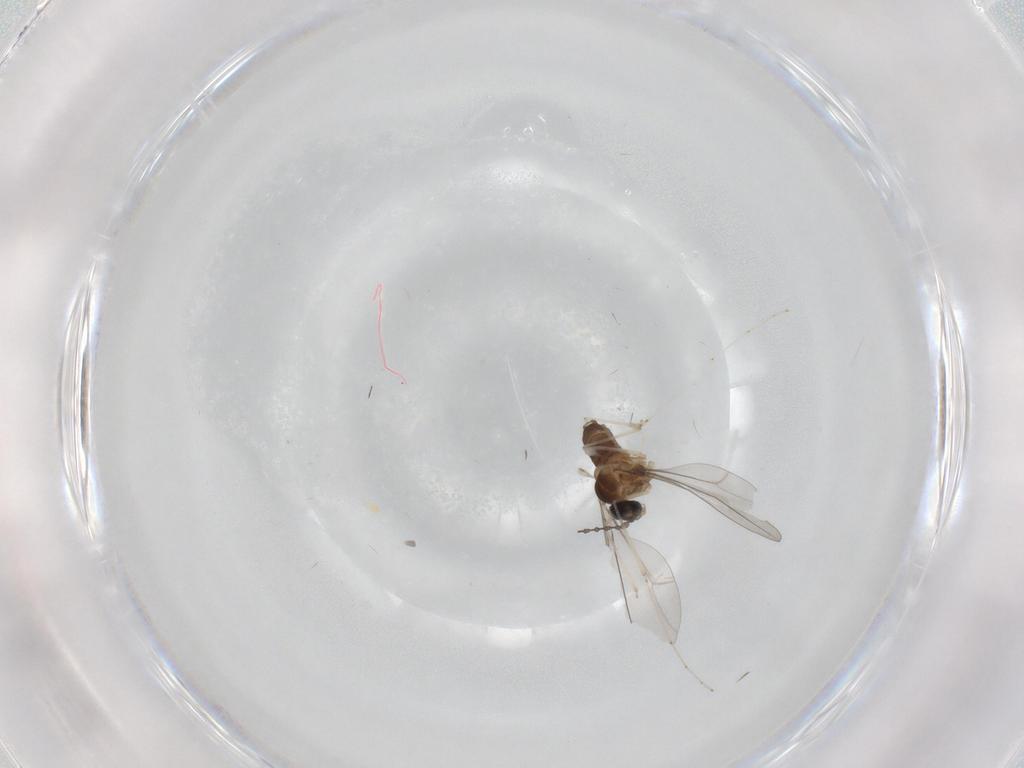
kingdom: Animalia
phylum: Arthropoda
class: Insecta
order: Diptera
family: Cecidomyiidae
